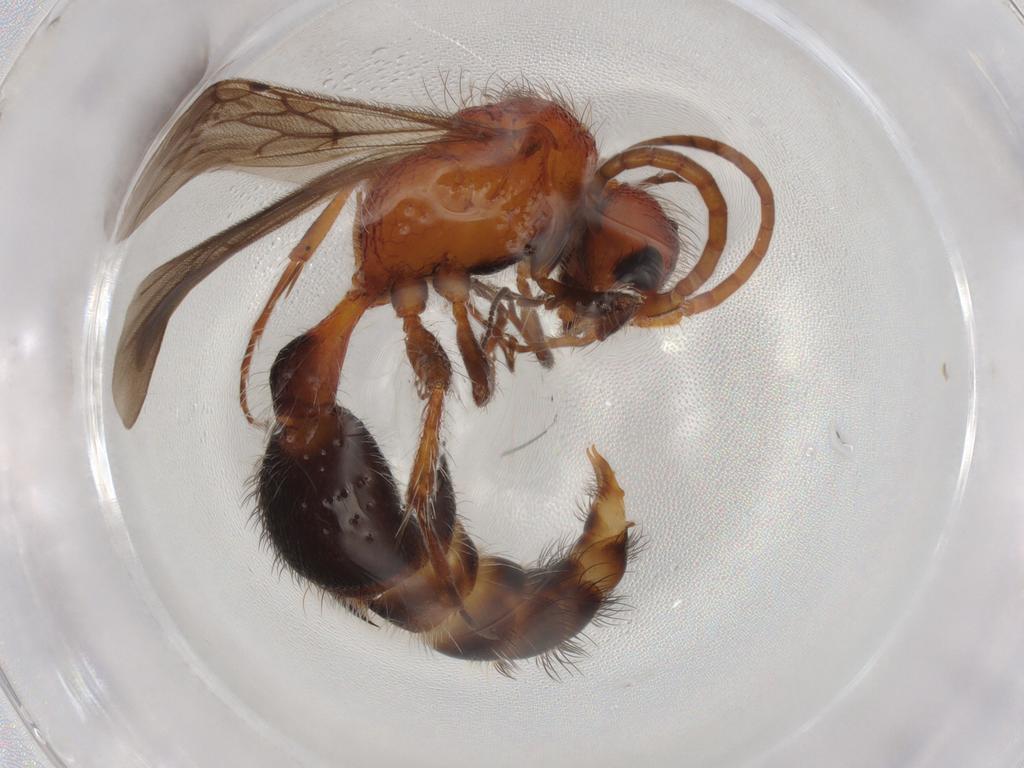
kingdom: Animalia
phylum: Arthropoda
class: Insecta
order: Hymenoptera
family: Mutillidae
